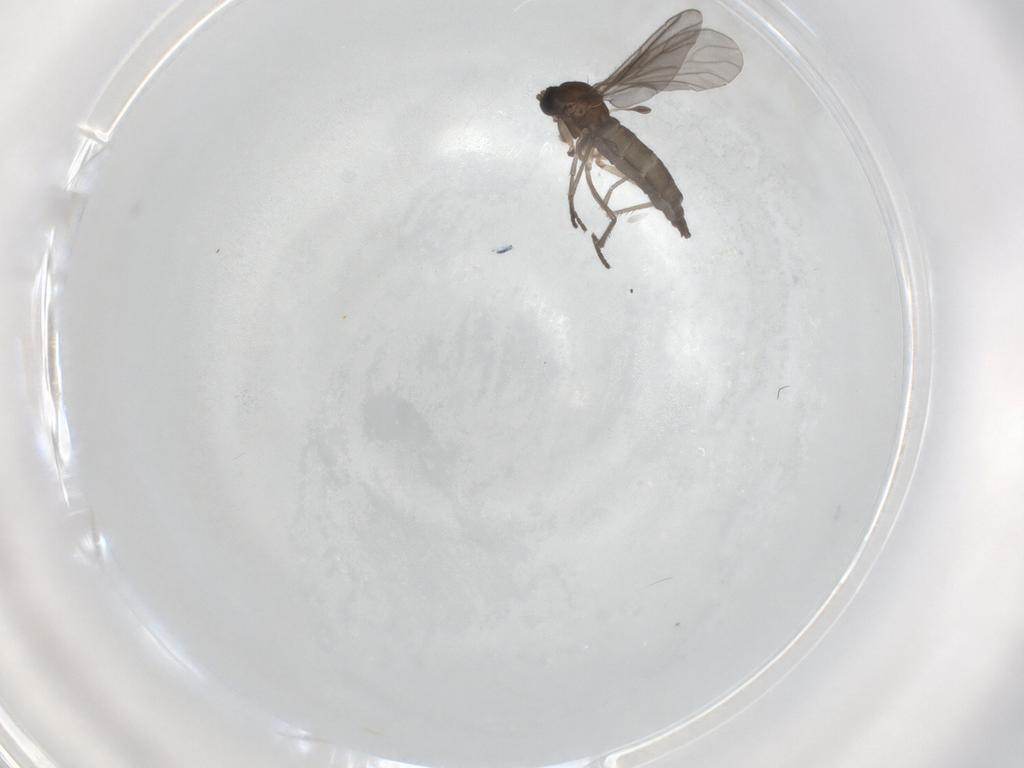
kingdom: Animalia
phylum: Arthropoda
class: Insecta
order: Diptera
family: Sciaridae
